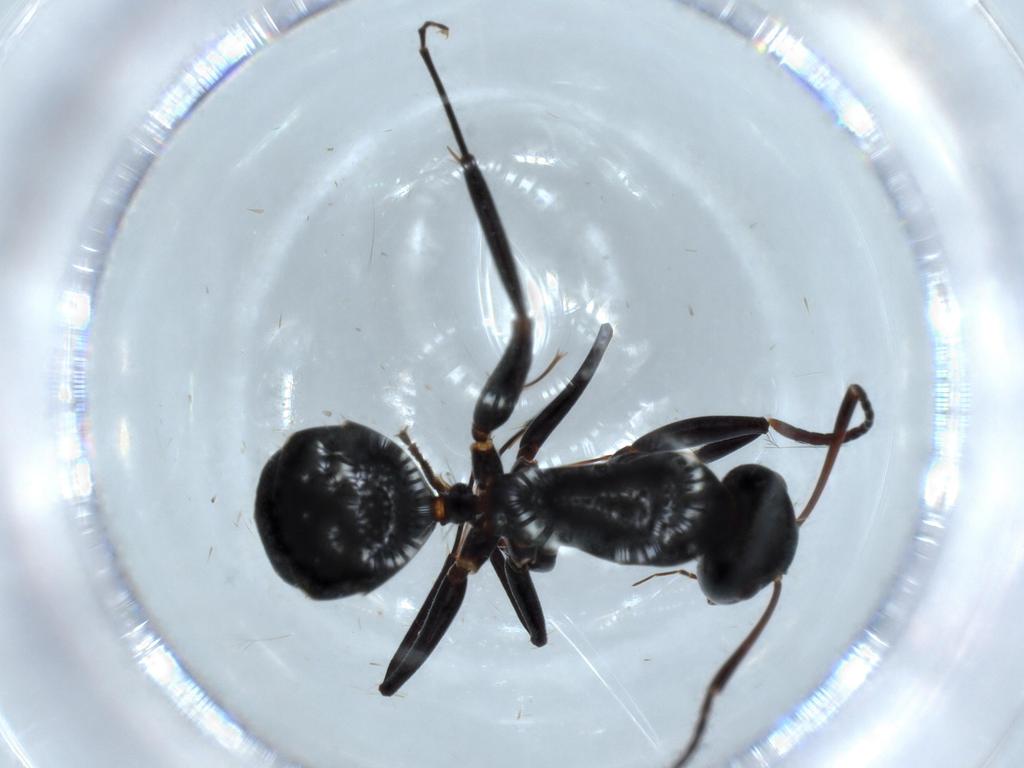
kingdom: Animalia
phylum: Arthropoda
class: Insecta
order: Hymenoptera
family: Formicidae
